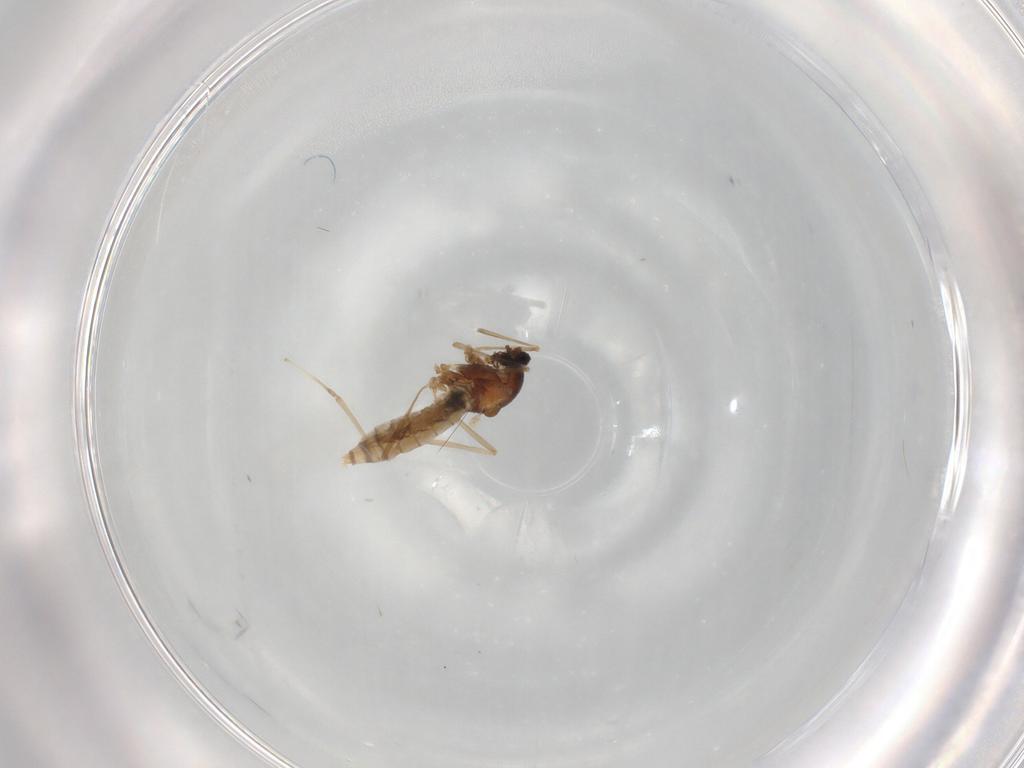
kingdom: Animalia
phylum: Arthropoda
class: Insecta
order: Diptera
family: Cecidomyiidae
